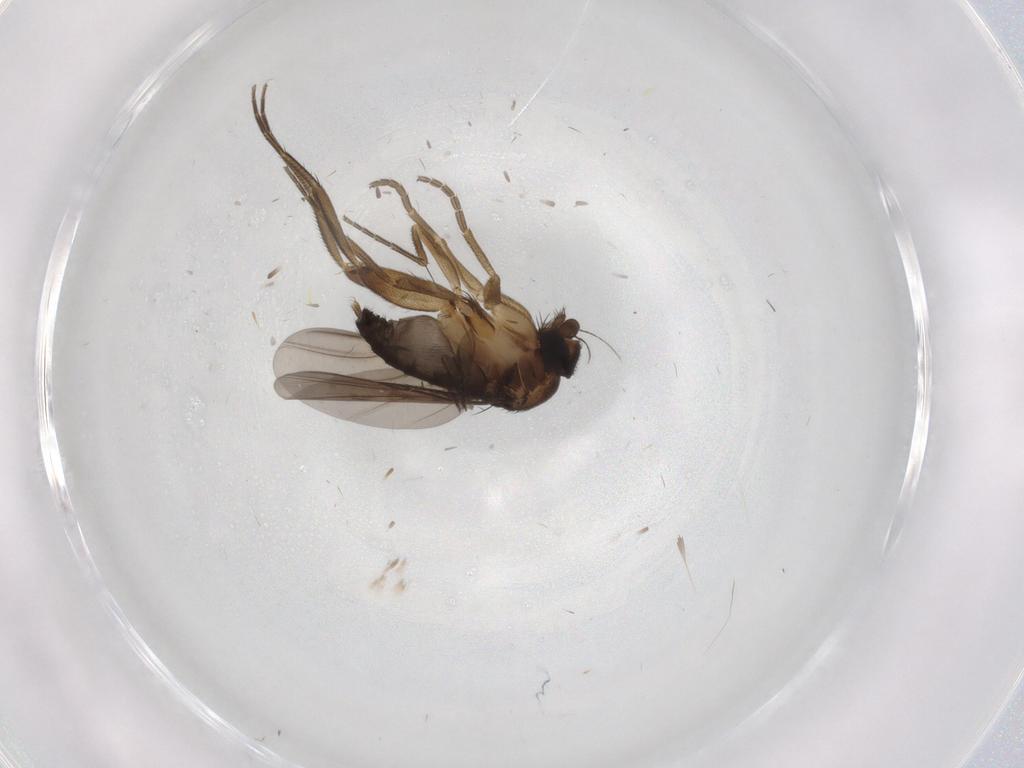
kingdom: Animalia
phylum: Arthropoda
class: Insecta
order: Diptera
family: Phoridae
